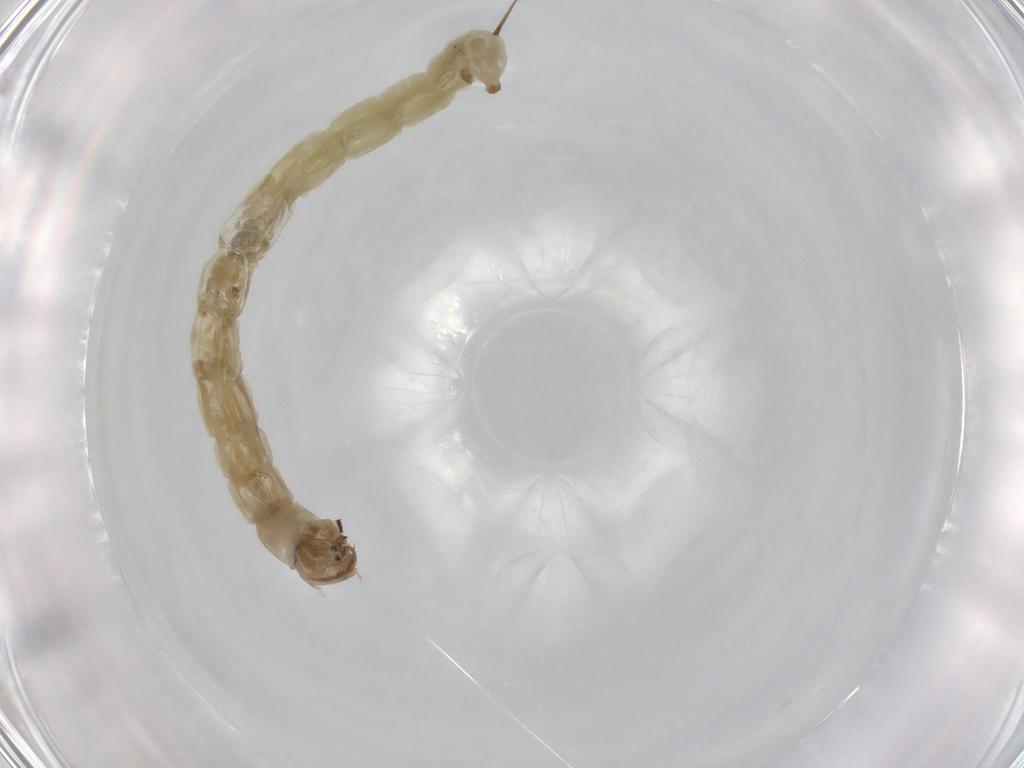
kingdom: Animalia
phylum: Arthropoda
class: Insecta
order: Diptera
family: Chironomidae
